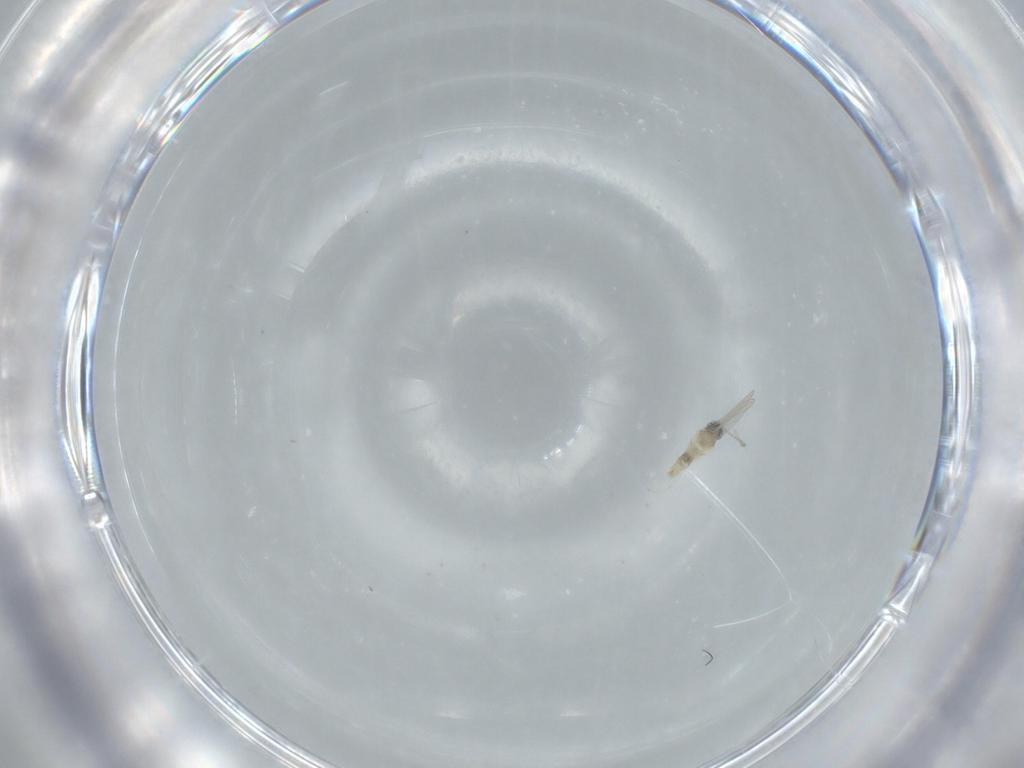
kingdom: Animalia
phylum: Arthropoda
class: Insecta
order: Diptera
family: Cecidomyiidae
